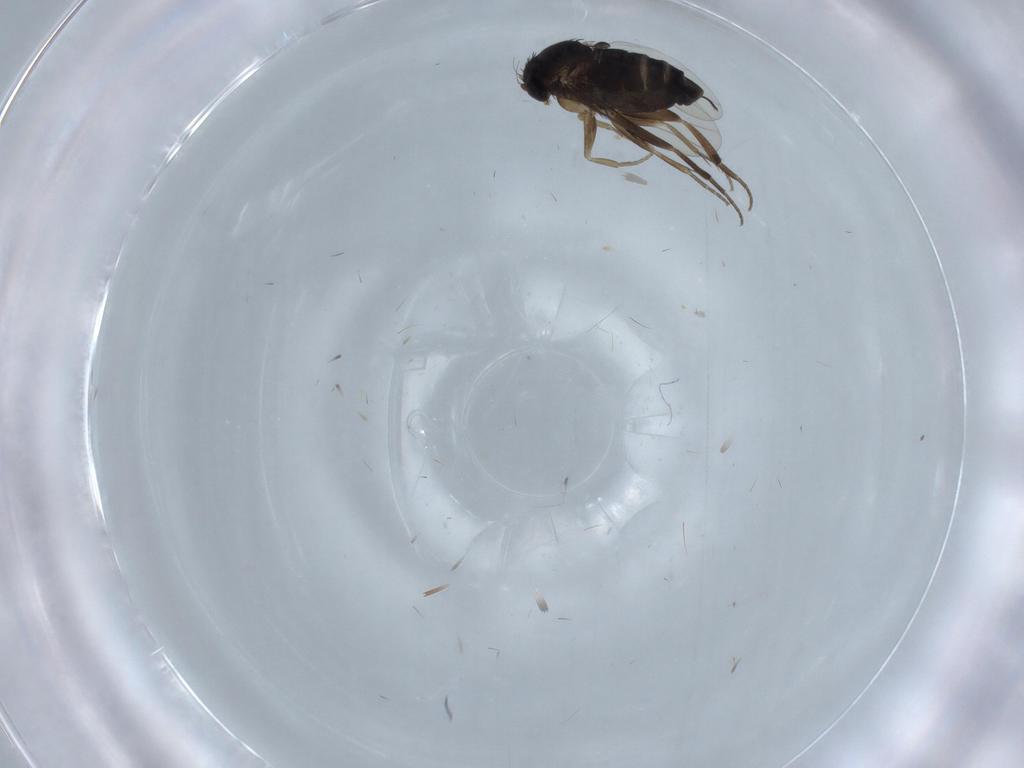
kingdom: Animalia
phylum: Arthropoda
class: Insecta
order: Diptera
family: Phoridae
